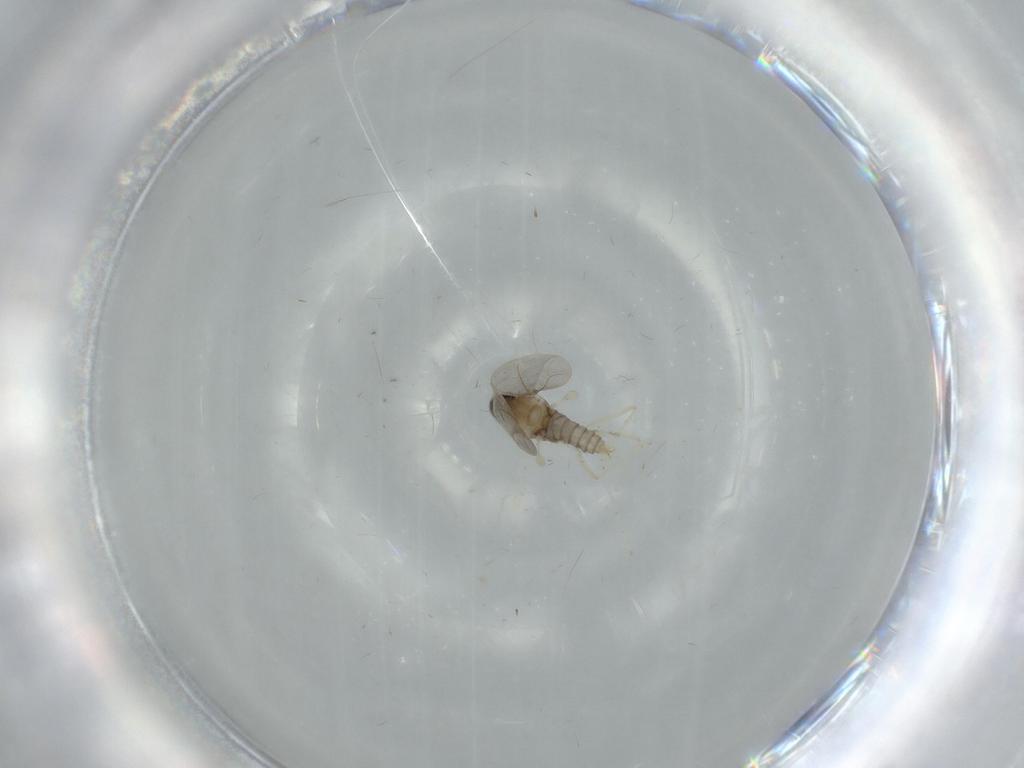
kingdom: Animalia
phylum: Arthropoda
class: Insecta
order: Diptera
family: Cecidomyiidae
